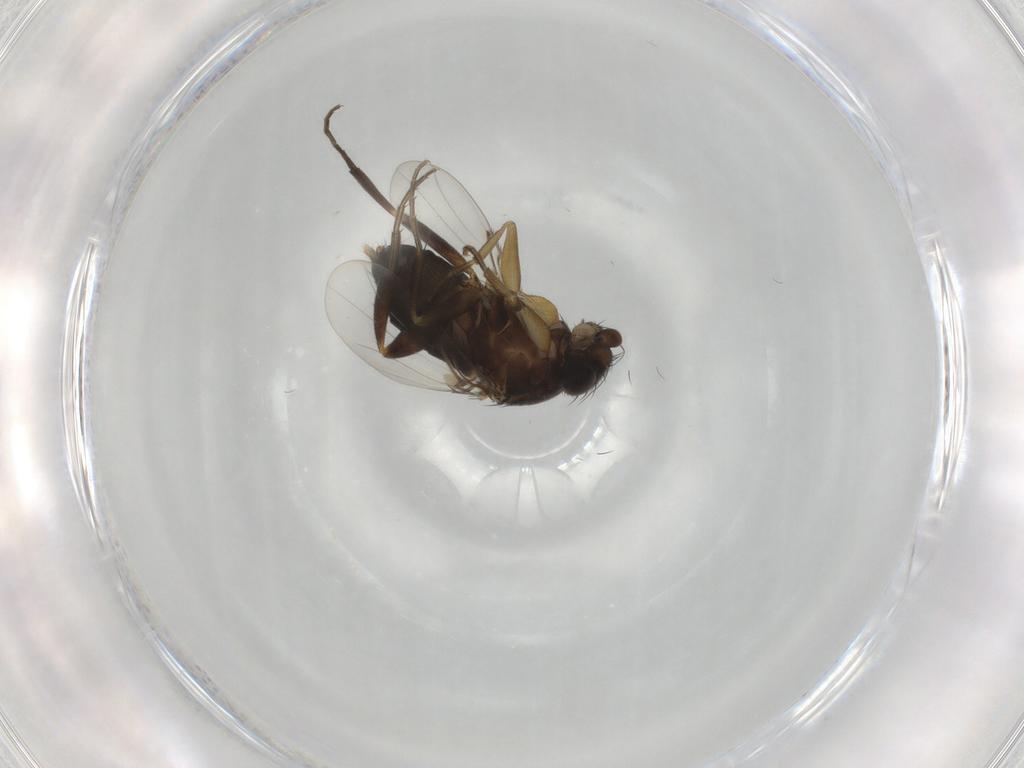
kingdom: Animalia
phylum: Arthropoda
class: Insecta
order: Diptera
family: Phoridae
